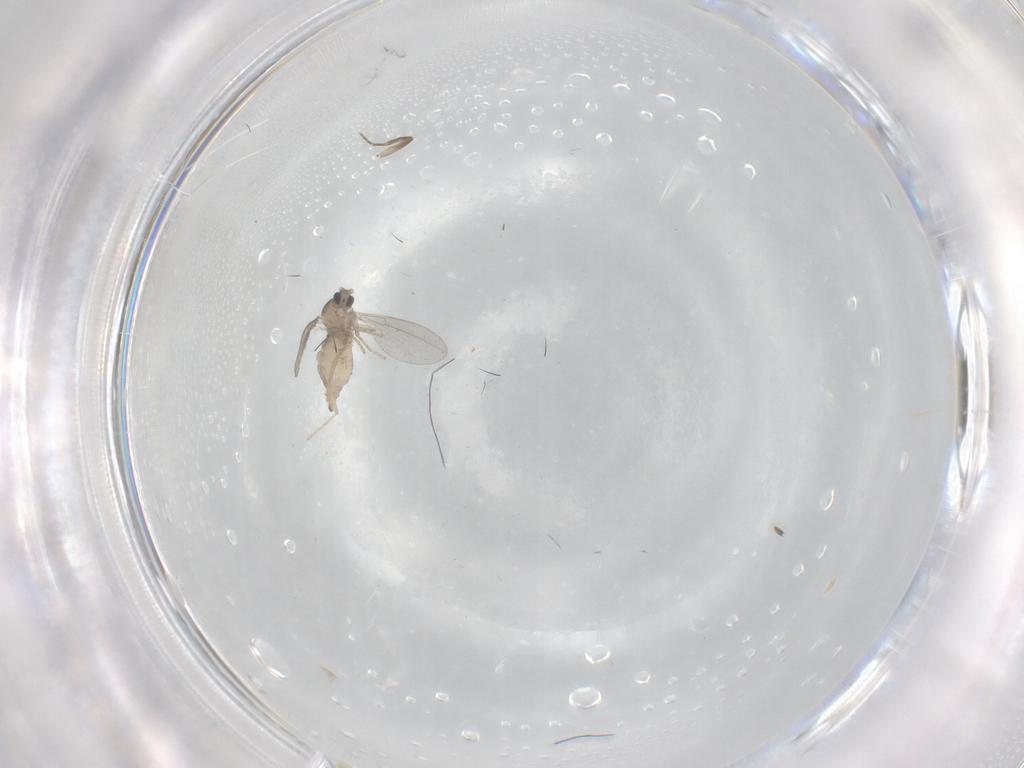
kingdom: Animalia
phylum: Arthropoda
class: Insecta
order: Diptera
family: Cecidomyiidae
